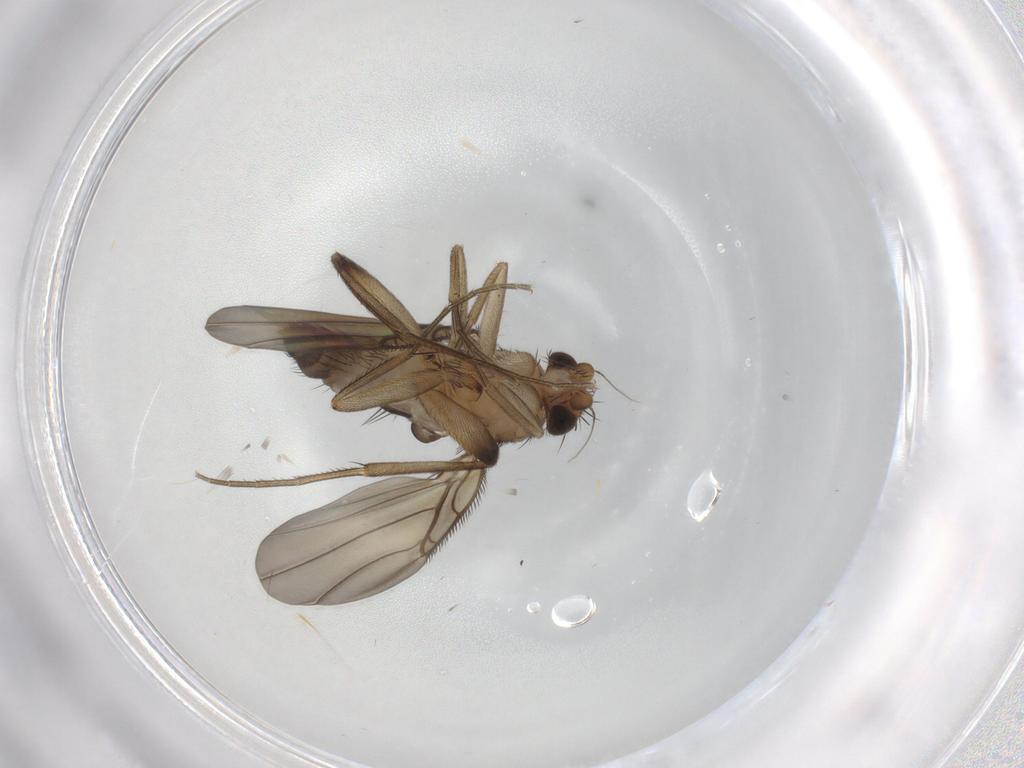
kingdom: Animalia
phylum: Arthropoda
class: Insecta
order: Diptera
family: Phoridae
